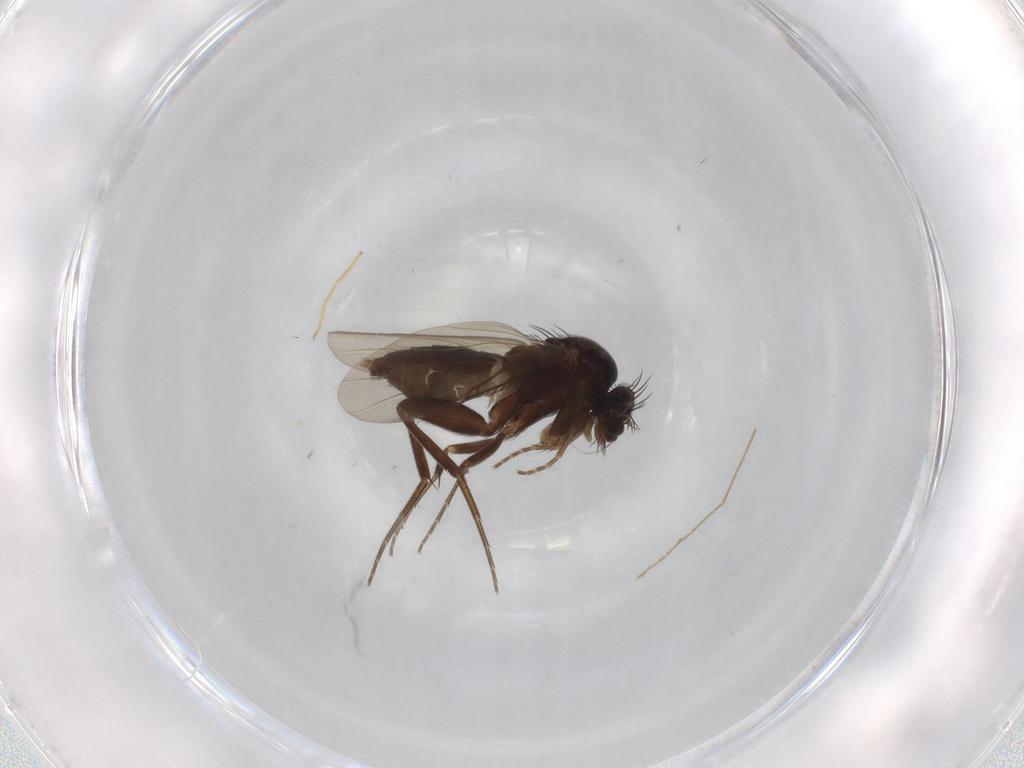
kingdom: Animalia
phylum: Arthropoda
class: Insecta
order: Diptera
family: Phoridae
